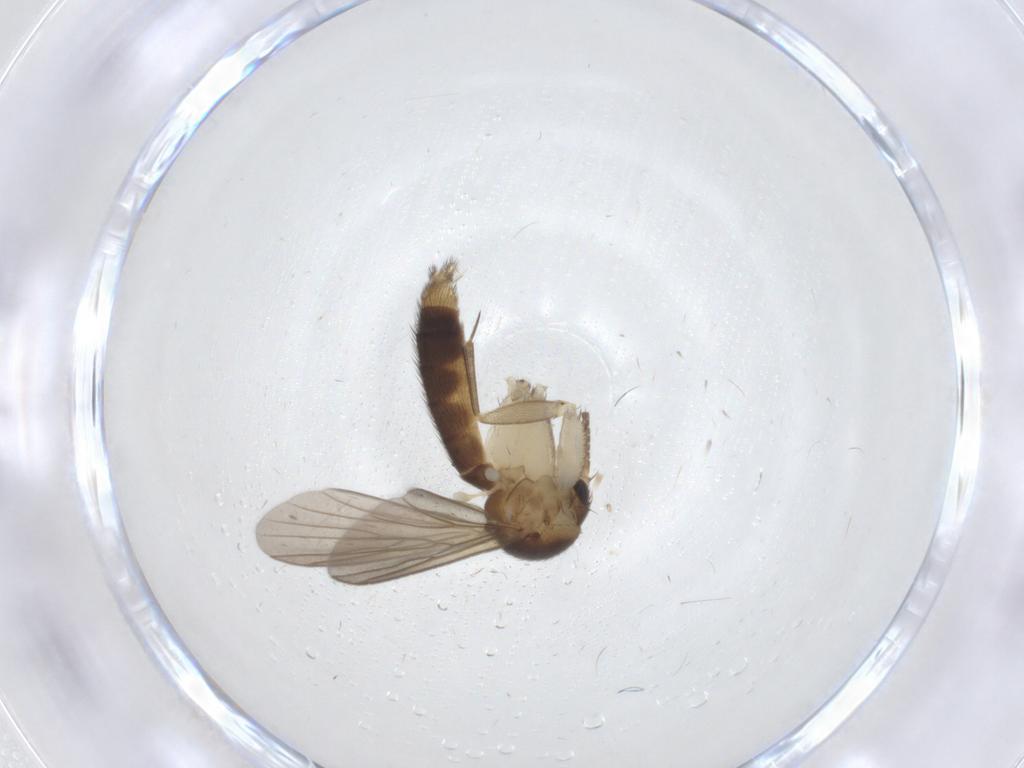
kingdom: Animalia
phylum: Arthropoda
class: Insecta
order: Diptera
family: Mycetophilidae
